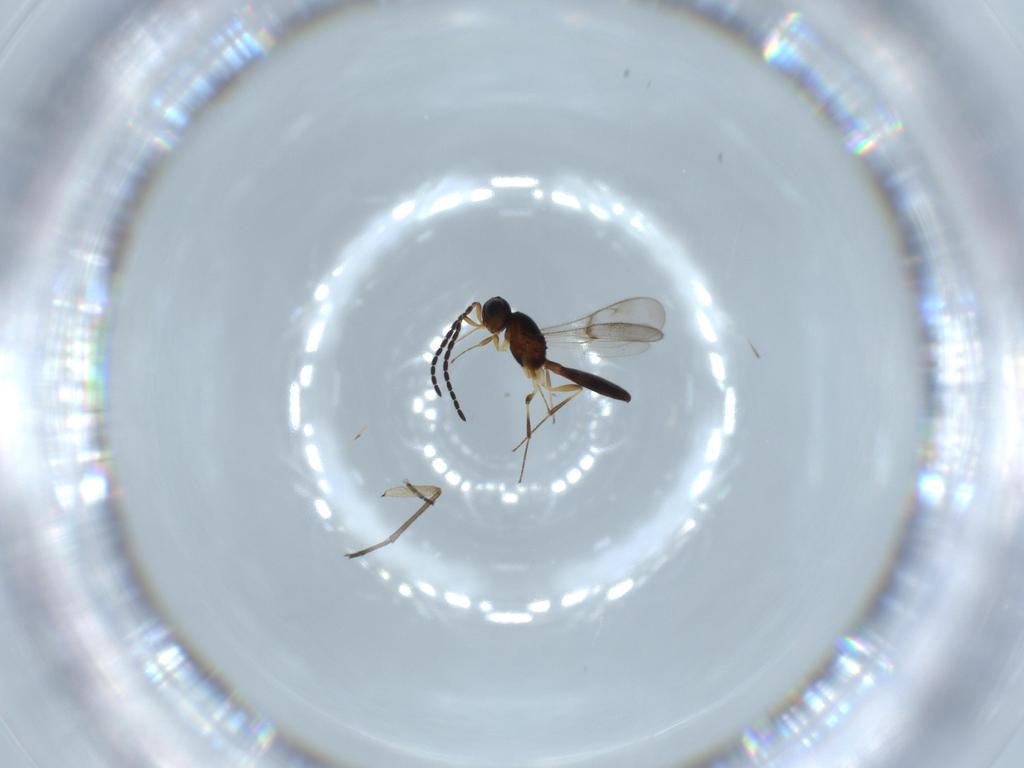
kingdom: Animalia
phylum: Arthropoda
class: Insecta
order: Hymenoptera
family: Scelionidae
